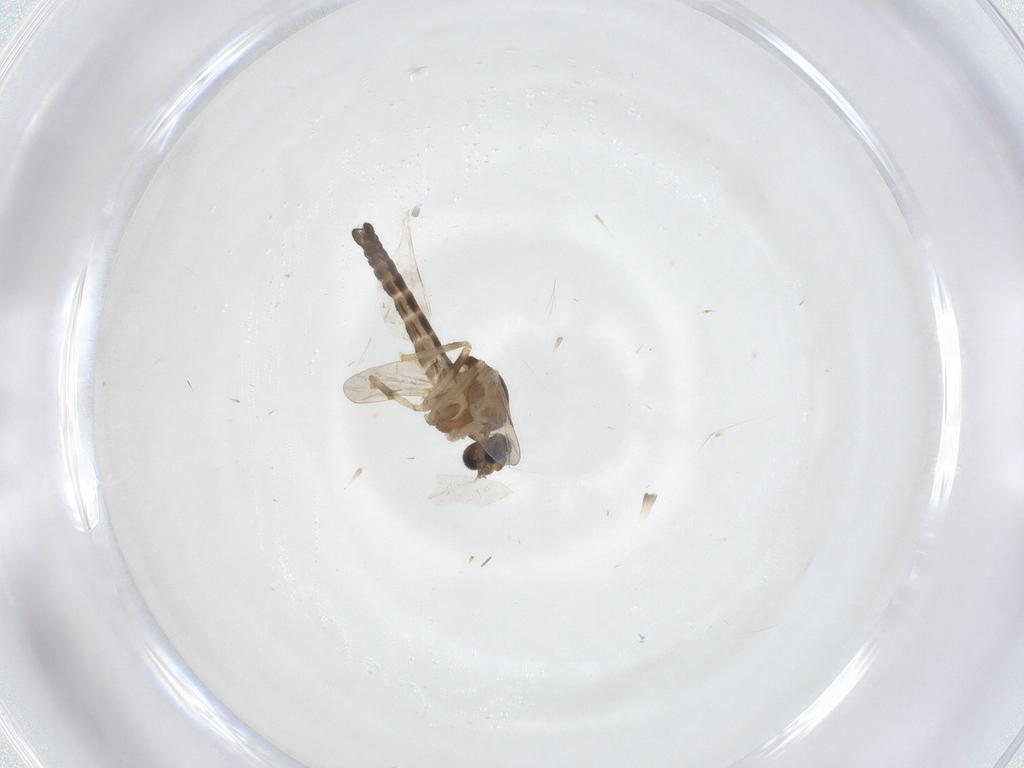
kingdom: Animalia
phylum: Arthropoda
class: Insecta
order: Diptera
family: Ceratopogonidae
